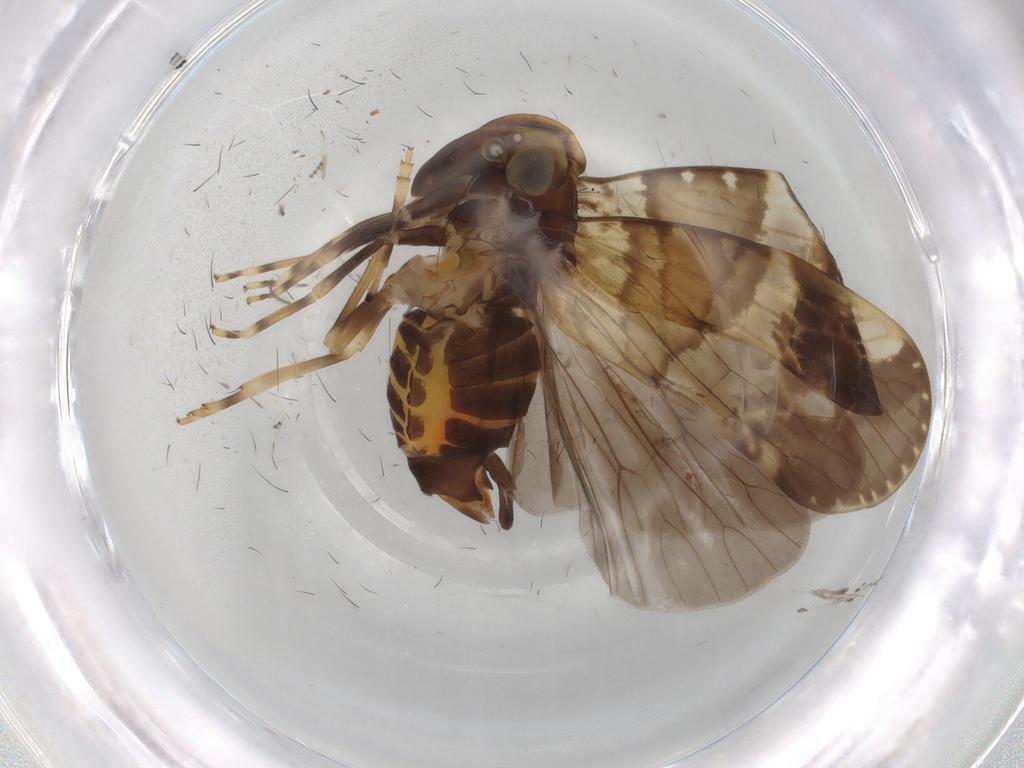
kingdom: Animalia
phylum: Arthropoda
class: Insecta
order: Hemiptera
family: Cixiidae
